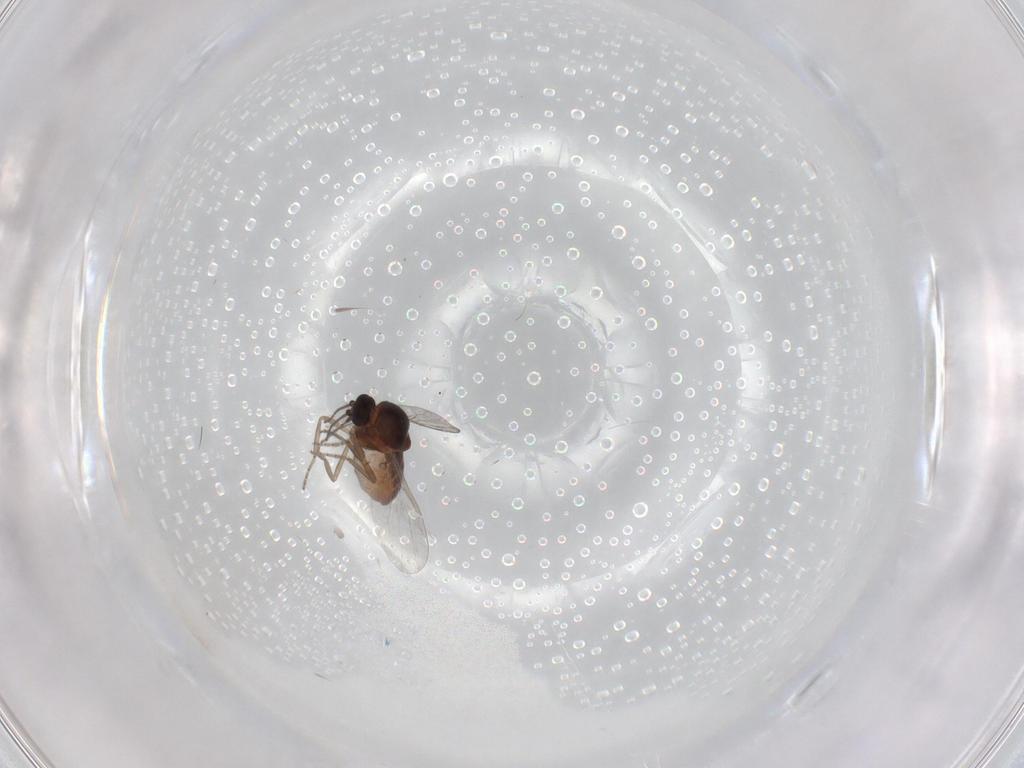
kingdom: Animalia
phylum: Arthropoda
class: Insecta
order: Diptera
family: Ceratopogonidae
